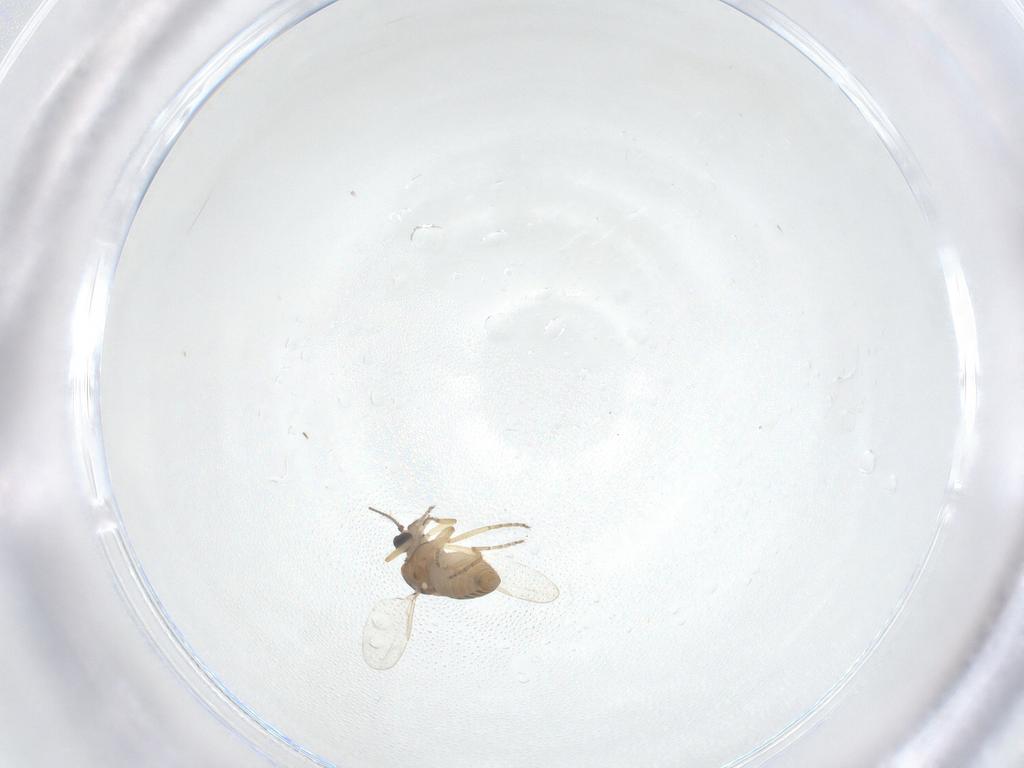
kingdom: Animalia
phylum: Arthropoda
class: Insecta
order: Diptera
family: Ceratopogonidae
